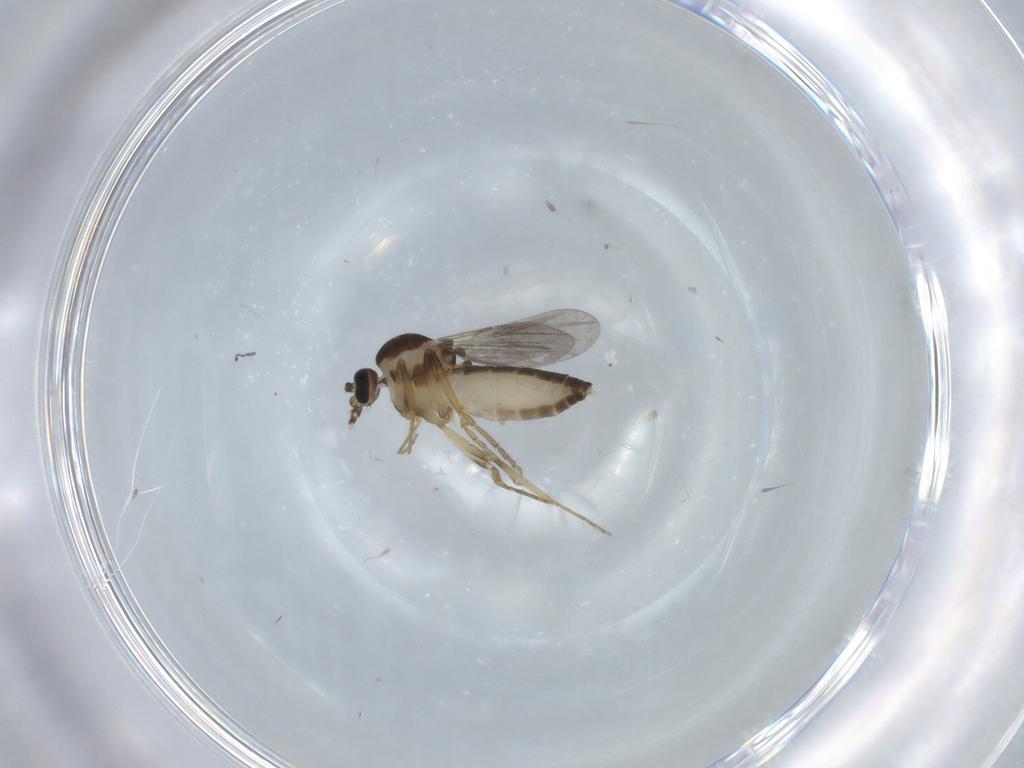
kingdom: Animalia
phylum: Arthropoda
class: Insecta
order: Diptera
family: Ceratopogonidae
